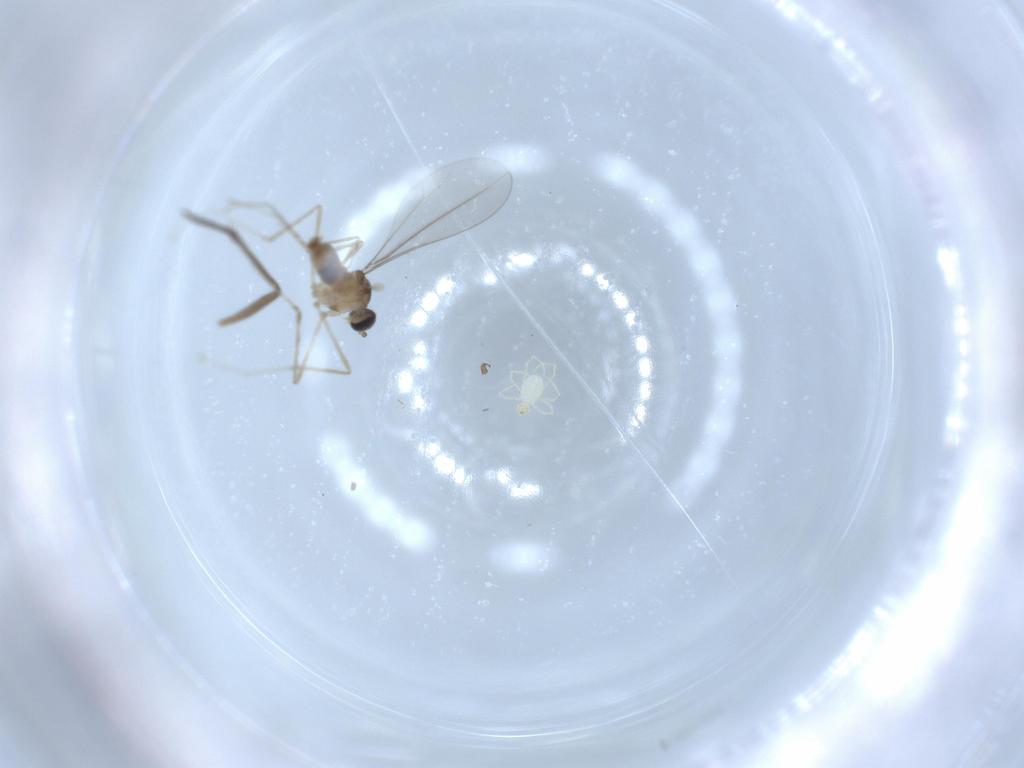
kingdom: Animalia
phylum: Arthropoda
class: Insecta
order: Diptera
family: Cecidomyiidae
